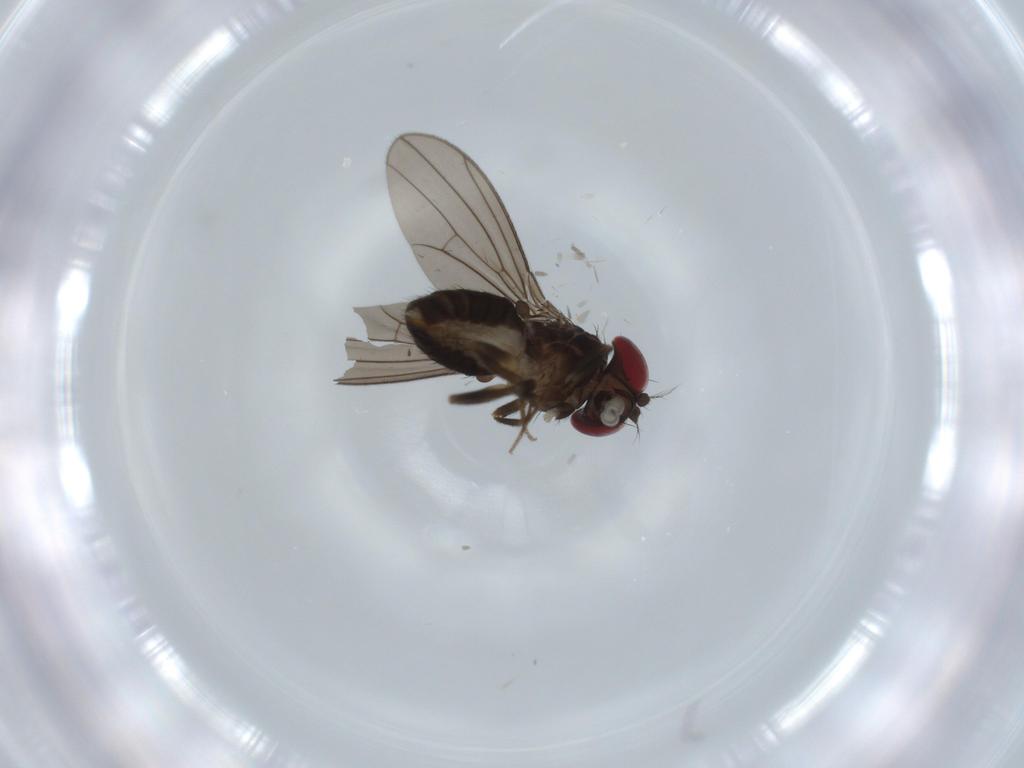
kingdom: Animalia
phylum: Arthropoda
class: Insecta
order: Diptera
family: Drosophilidae
